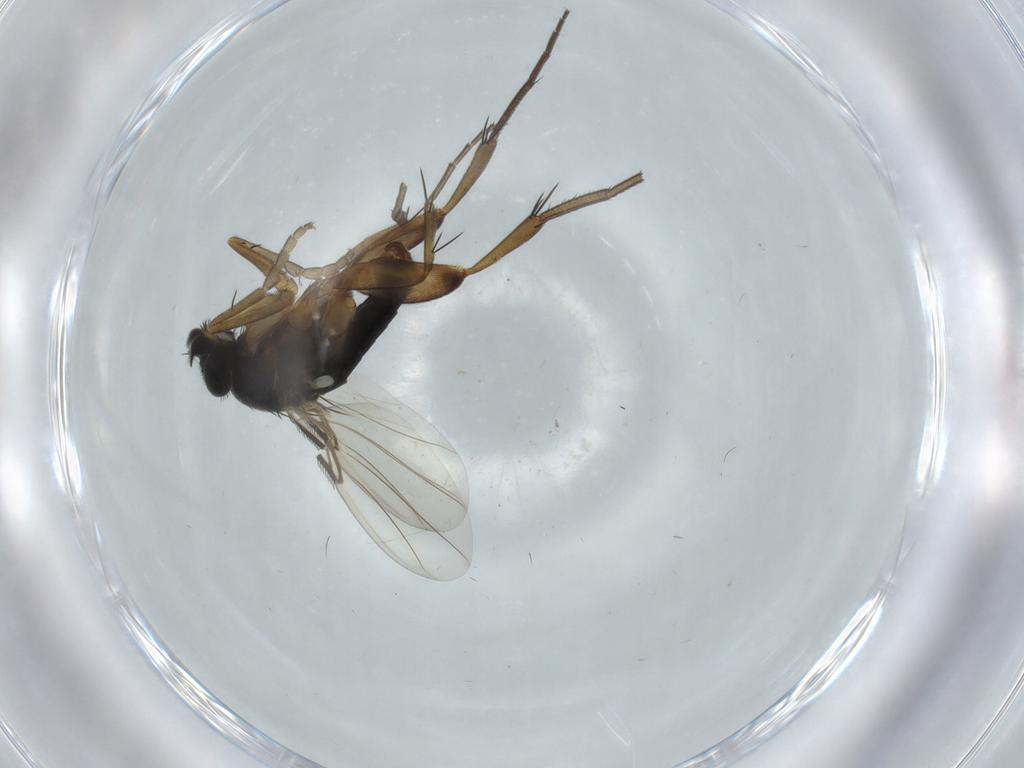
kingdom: Animalia
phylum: Arthropoda
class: Insecta
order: Diptera
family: Phoridae
